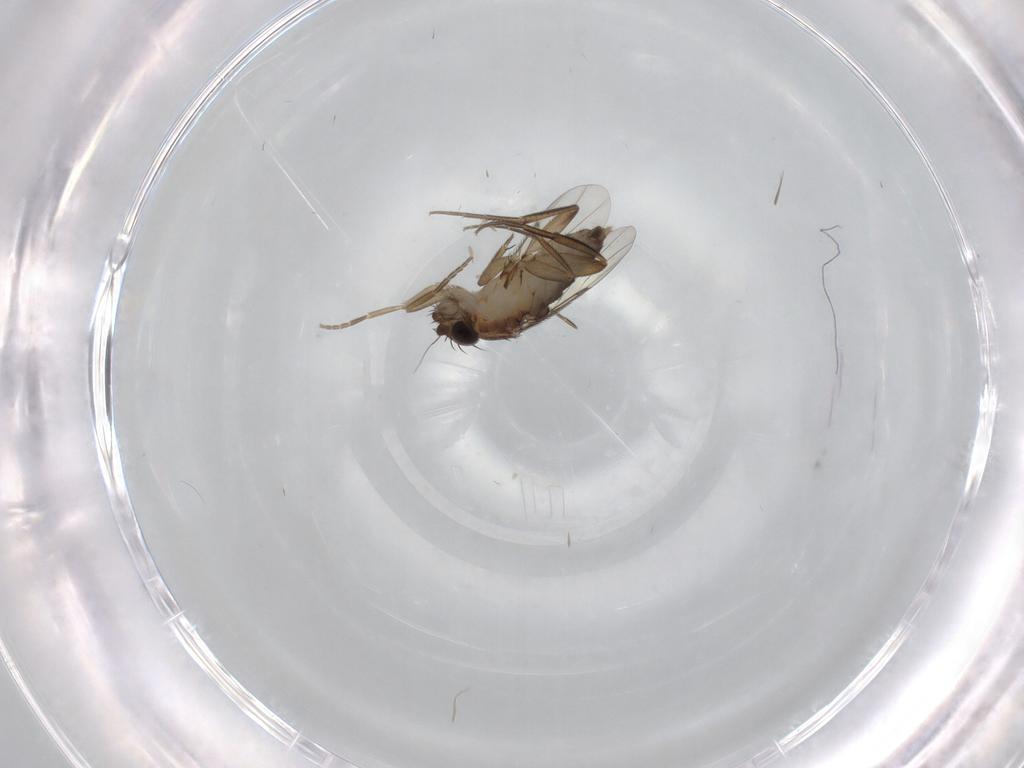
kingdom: Animalia
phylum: Arthropoda
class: Insecta
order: Diptera
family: Phoridae
